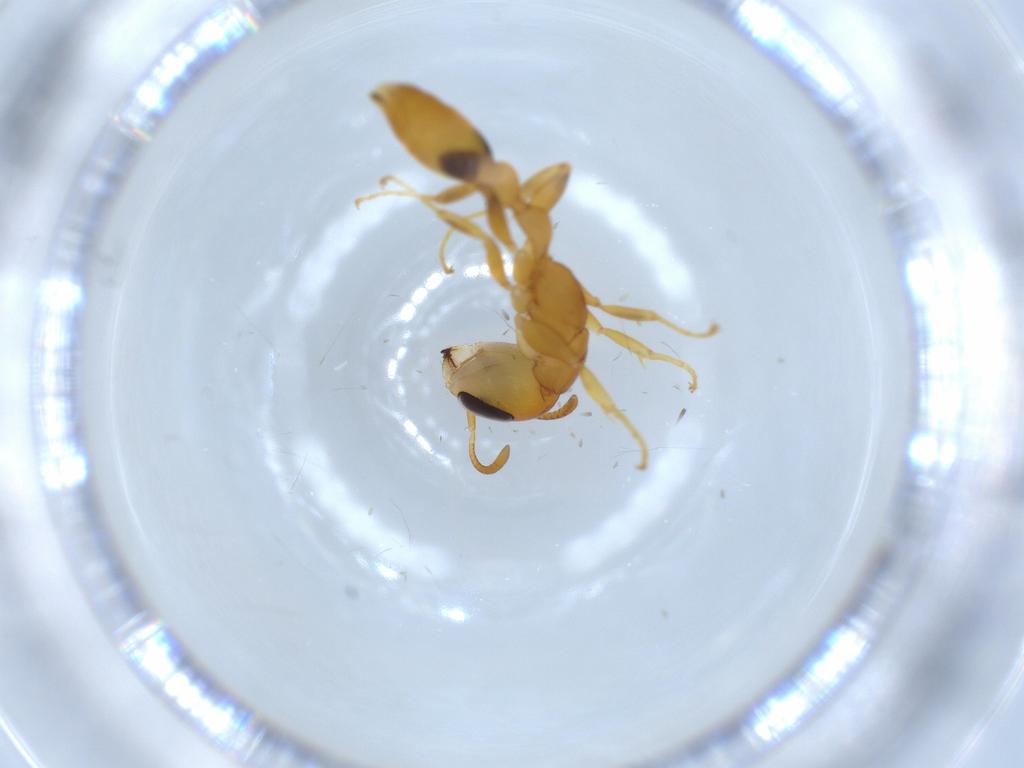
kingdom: Animalia
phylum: Arthropoda
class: Insecta
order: Hymenoptera
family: Formicidae
